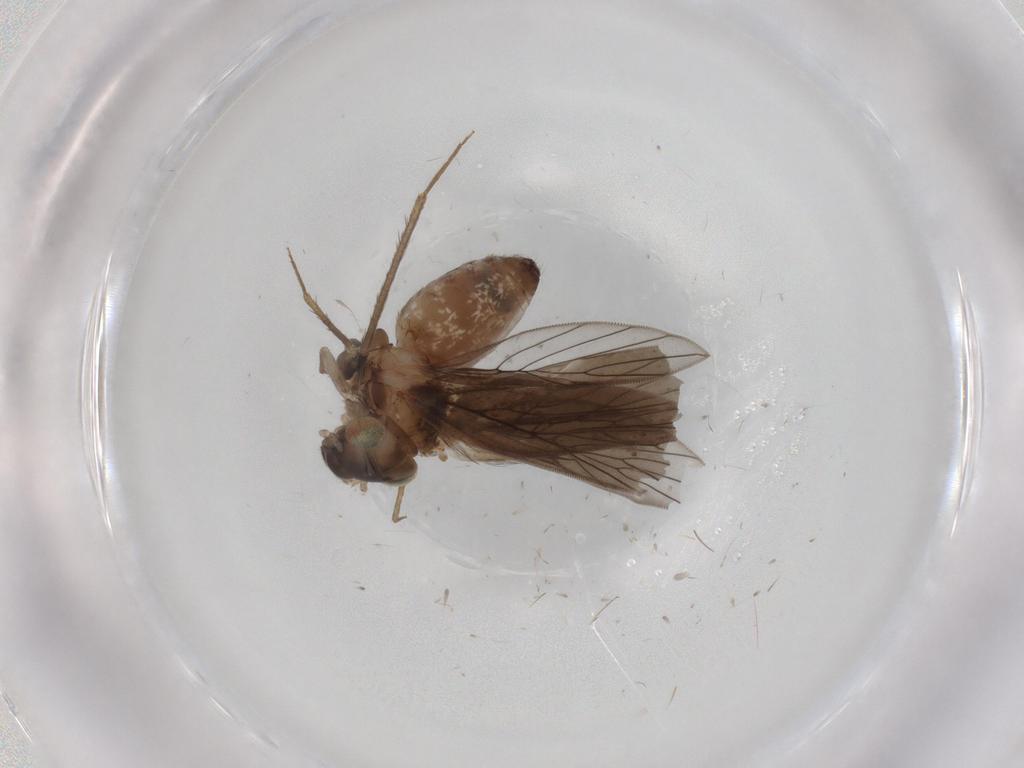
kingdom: Animalia
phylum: Arthropoda
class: Insecta
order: Psocodea
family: Lepidopsocidae
